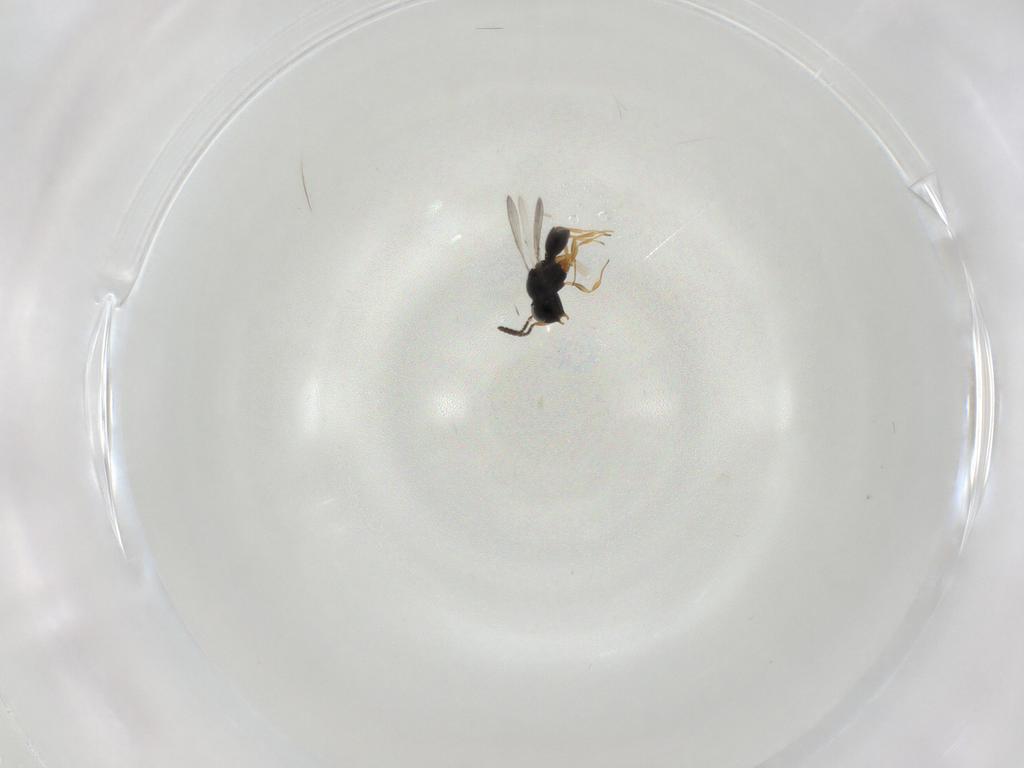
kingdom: Animalia
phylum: Arthropoda
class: Insecta
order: Hymenoptera
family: Scelionidae
